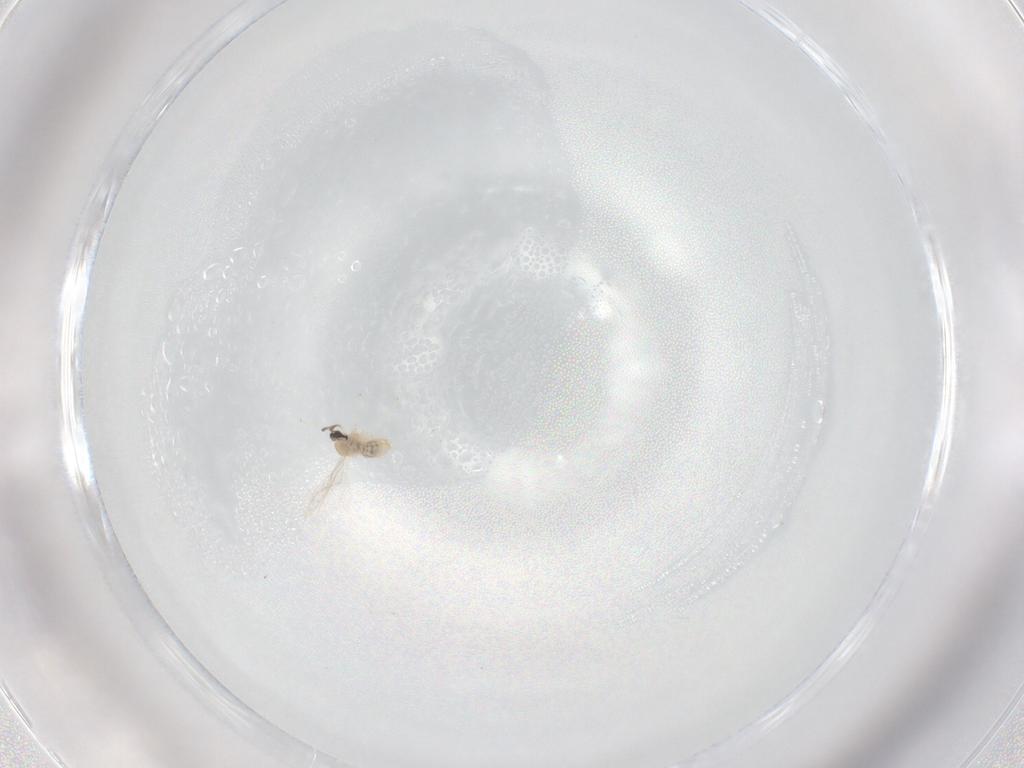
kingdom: Animalia
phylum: Arthropoda
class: Insecta
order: Diptera
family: Cecidomyiidae
